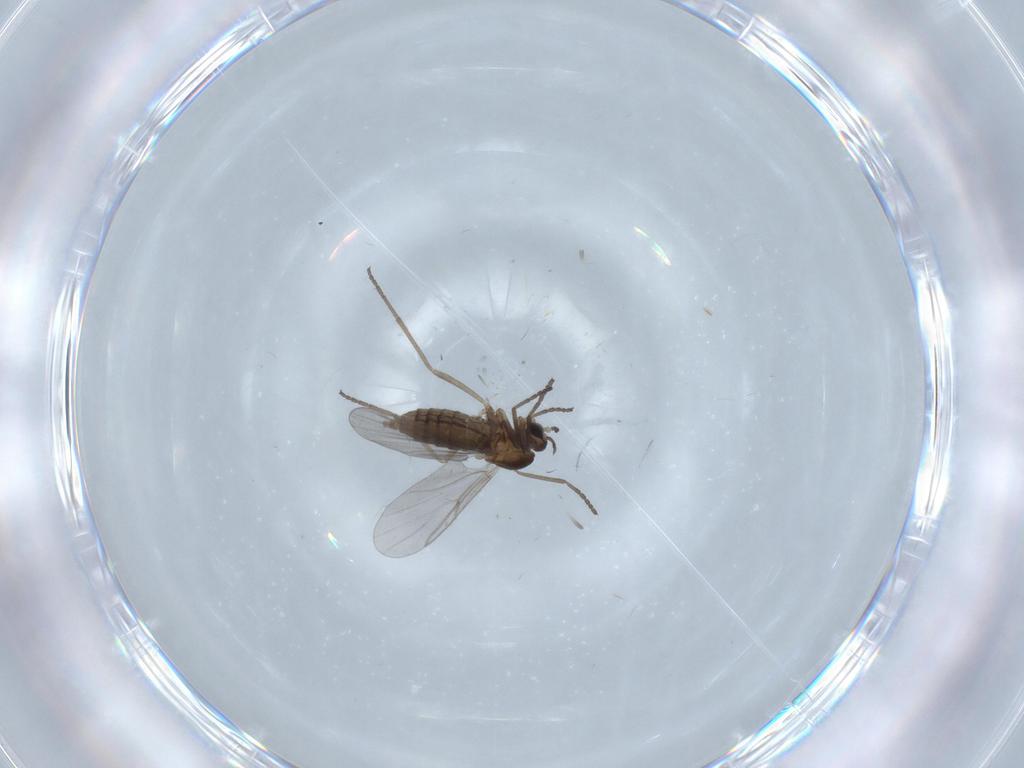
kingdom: Animalia
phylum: Arthropoda
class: Insecta
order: Diptera
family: Cecidomyiidae
